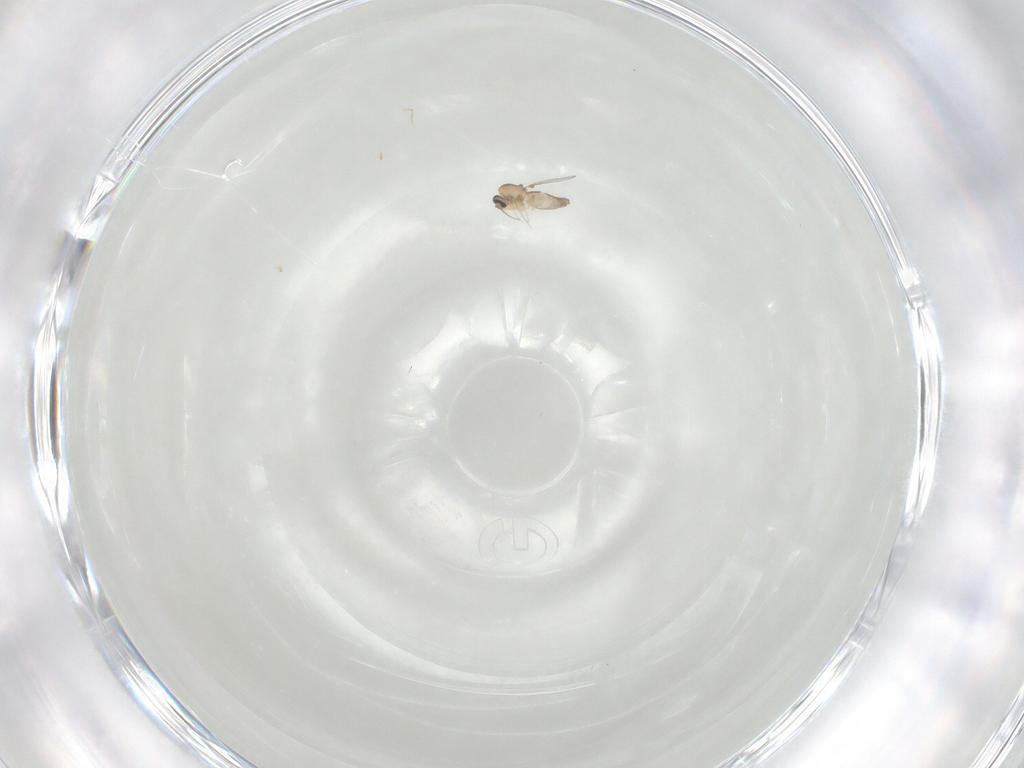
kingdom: Animalia
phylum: Arthropoda
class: Insecta
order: Diptera
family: Ceratopogonidae
